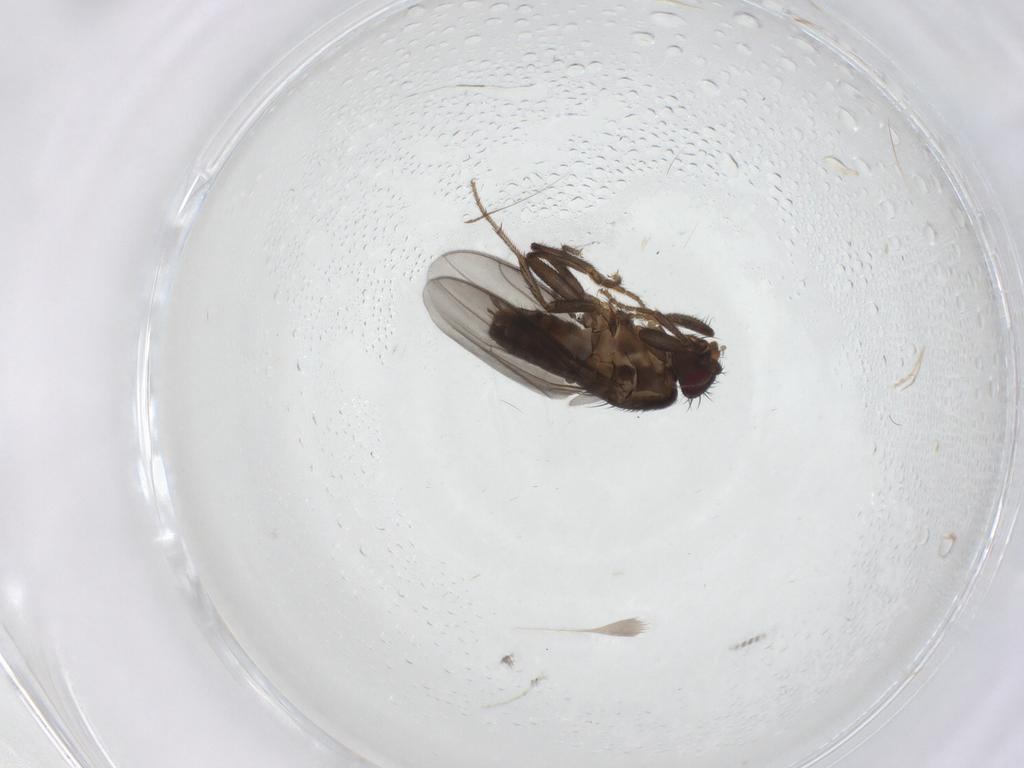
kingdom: Animalia
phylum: Arthropoda
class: Insecta
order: Diptera
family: Sphaeroceridae
